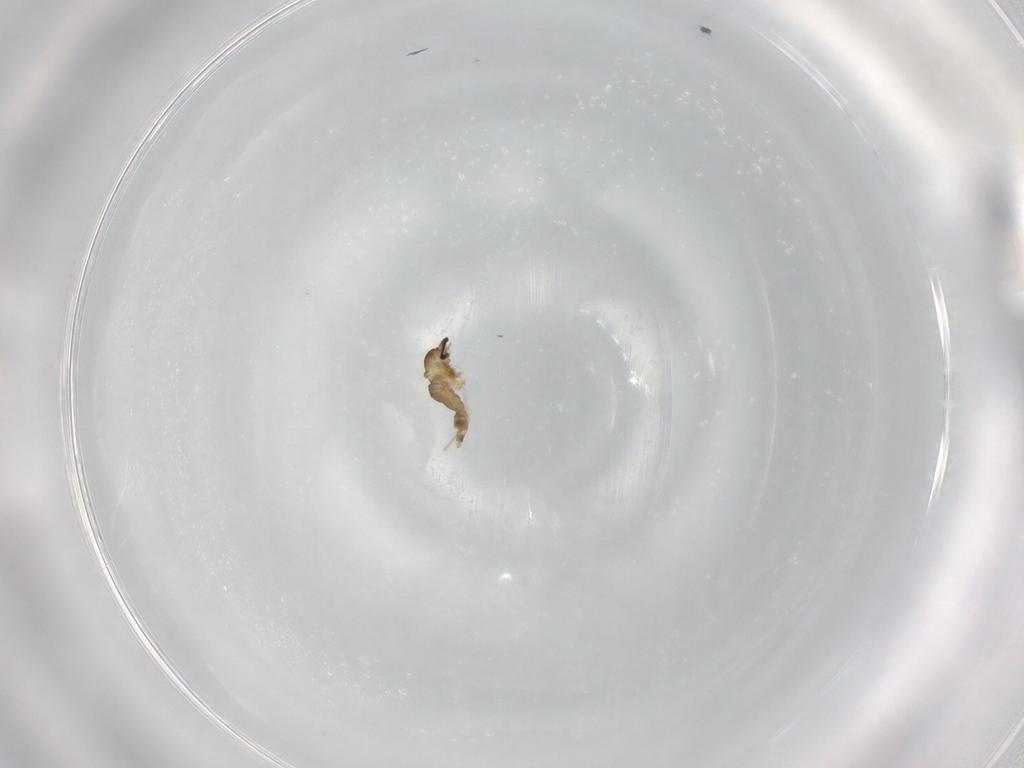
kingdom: Animalia
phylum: Arthropoda
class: Insecta
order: Diptera
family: Cecidomyiidae
